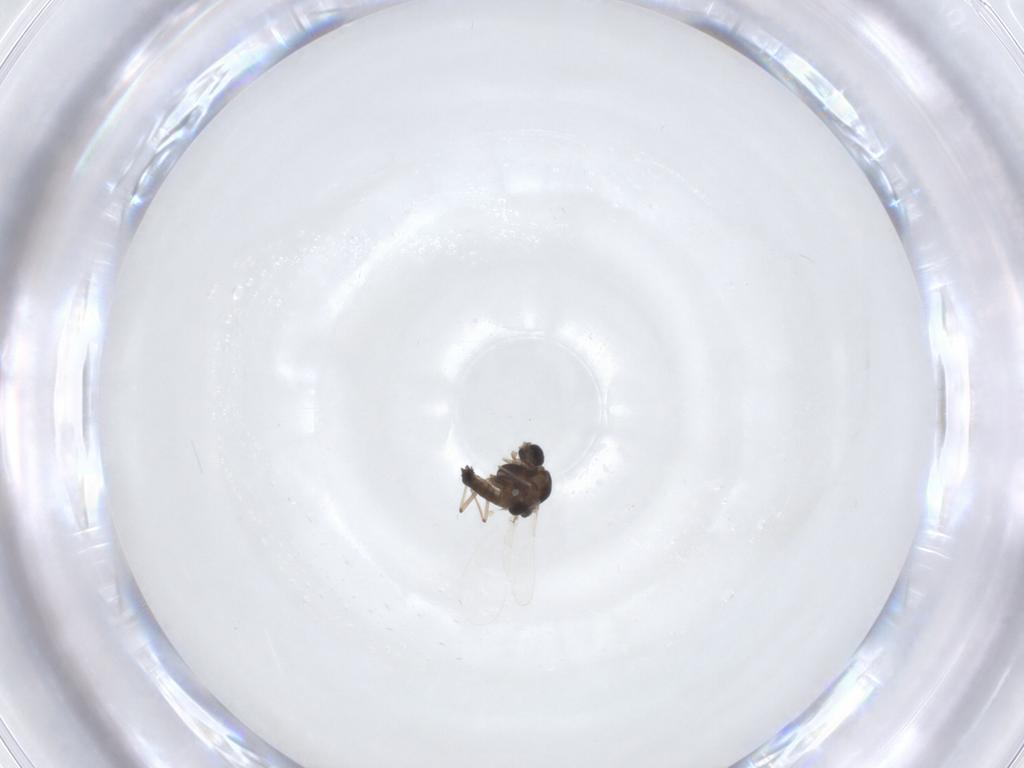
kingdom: Animalia
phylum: Arthropoda
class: Insecta
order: Diptera
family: Chironomidae
